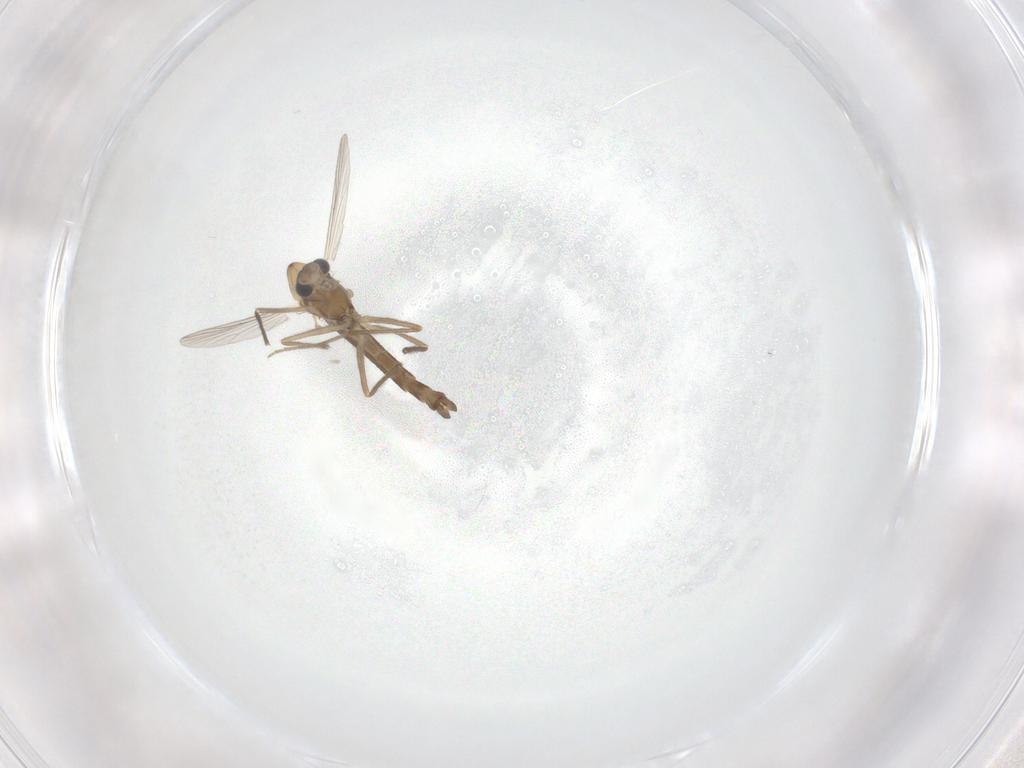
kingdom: Animalia
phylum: Arthropoda
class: Insecta
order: Diptera
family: Chironomidae
